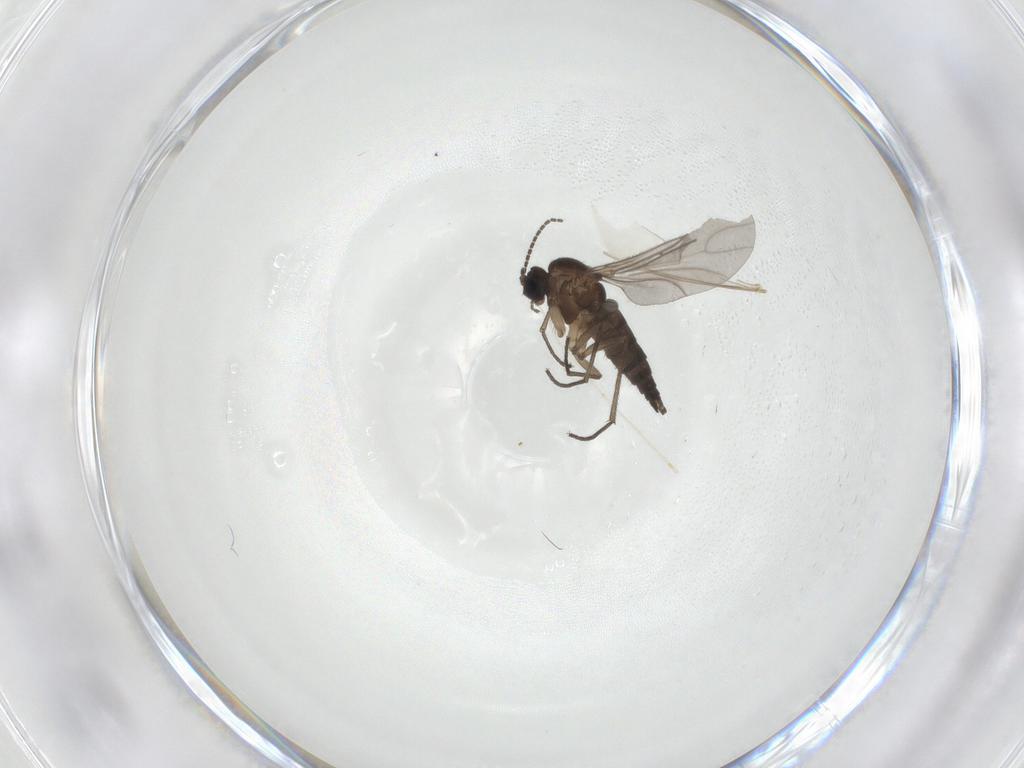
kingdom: Animalia
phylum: Arthropoda
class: Insecta
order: Diptera
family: Sciaridae
